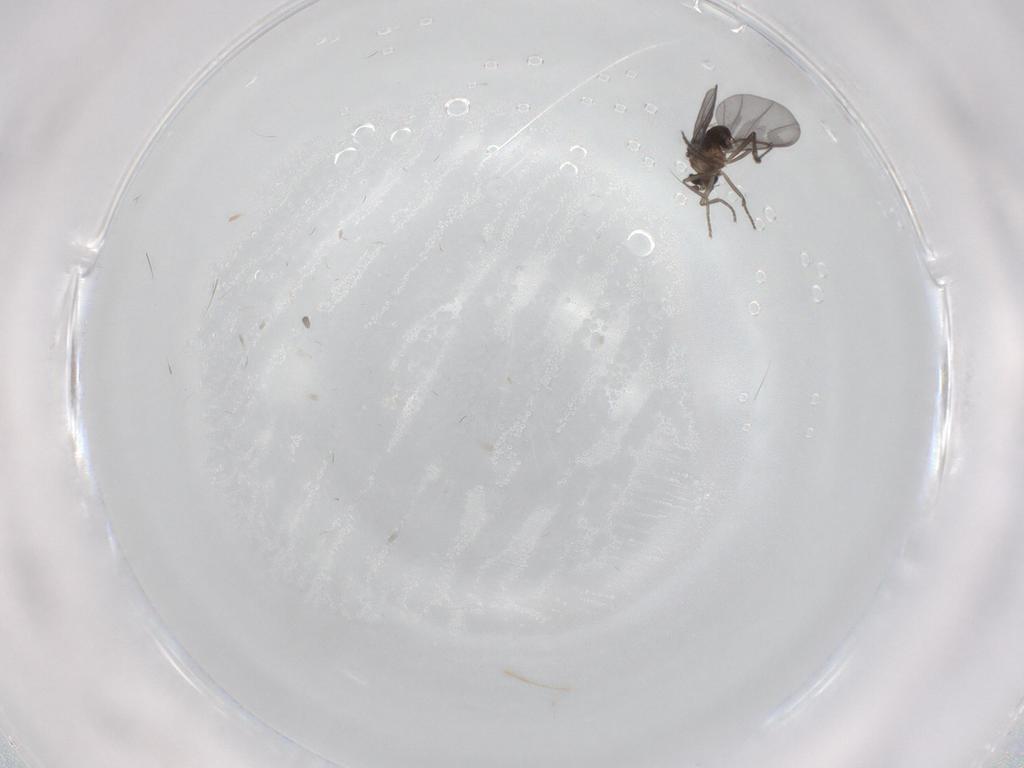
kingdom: Animalia
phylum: Arthropoda
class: Insecta
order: Diptera
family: Phoridae
